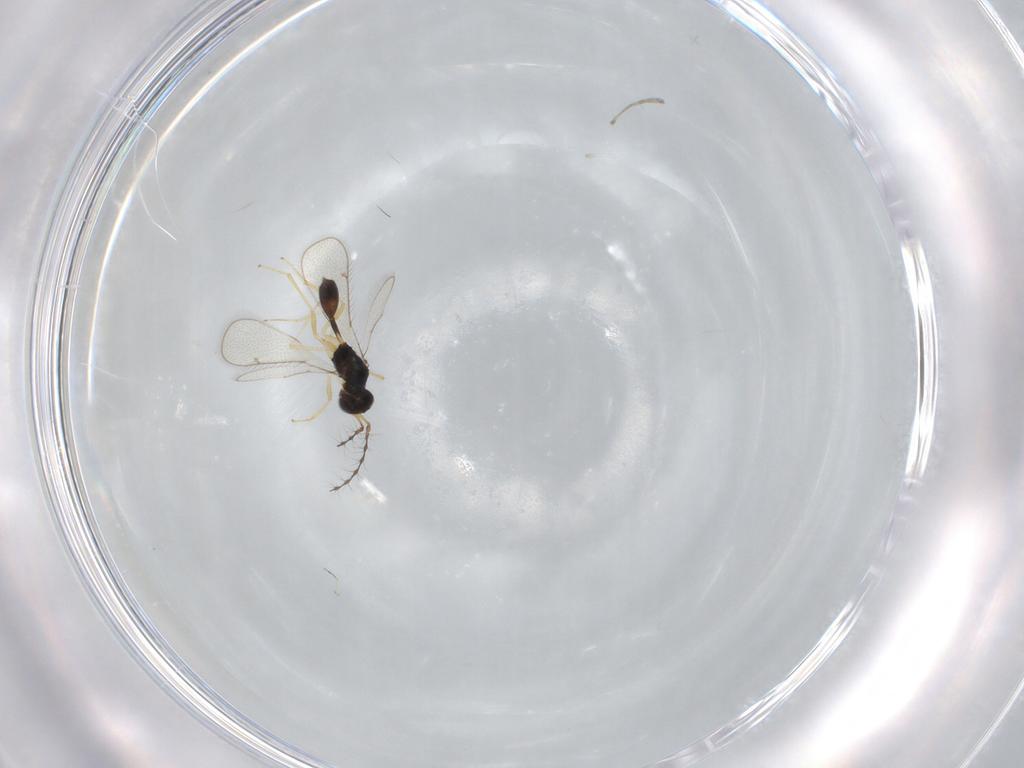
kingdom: Animalia
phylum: Arthropoda
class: Insecta
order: Hymenoptera
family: Diparidae
